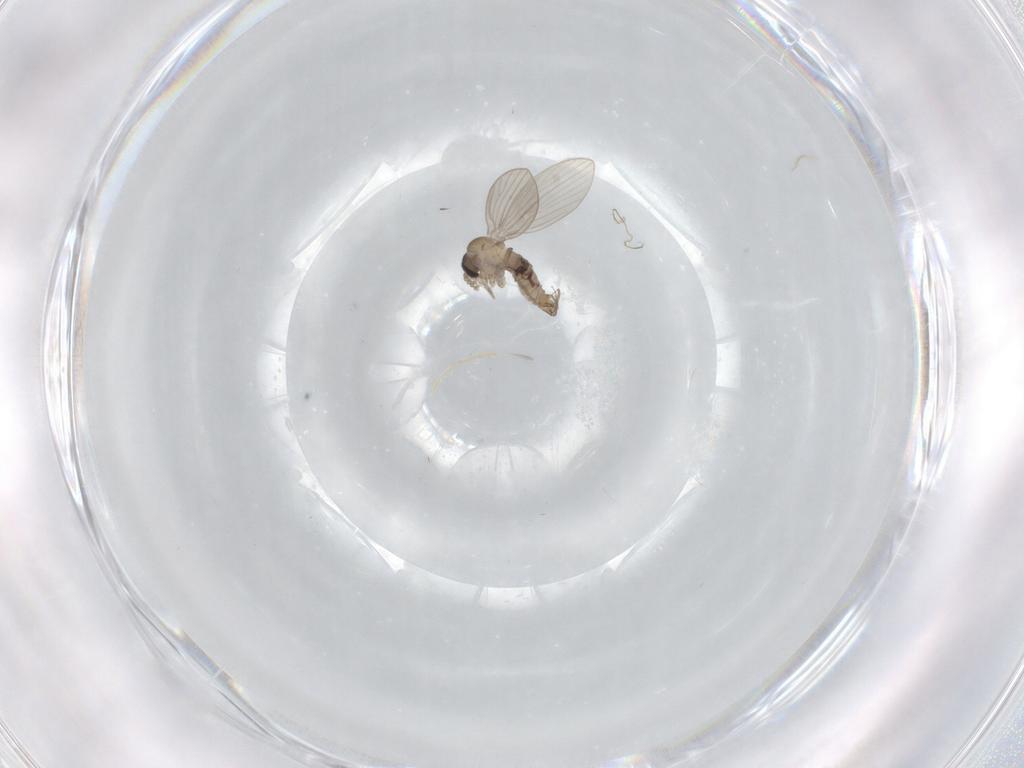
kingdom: Animalia
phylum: Arthropoda
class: Insecta
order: Diptera
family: Psychodidae
